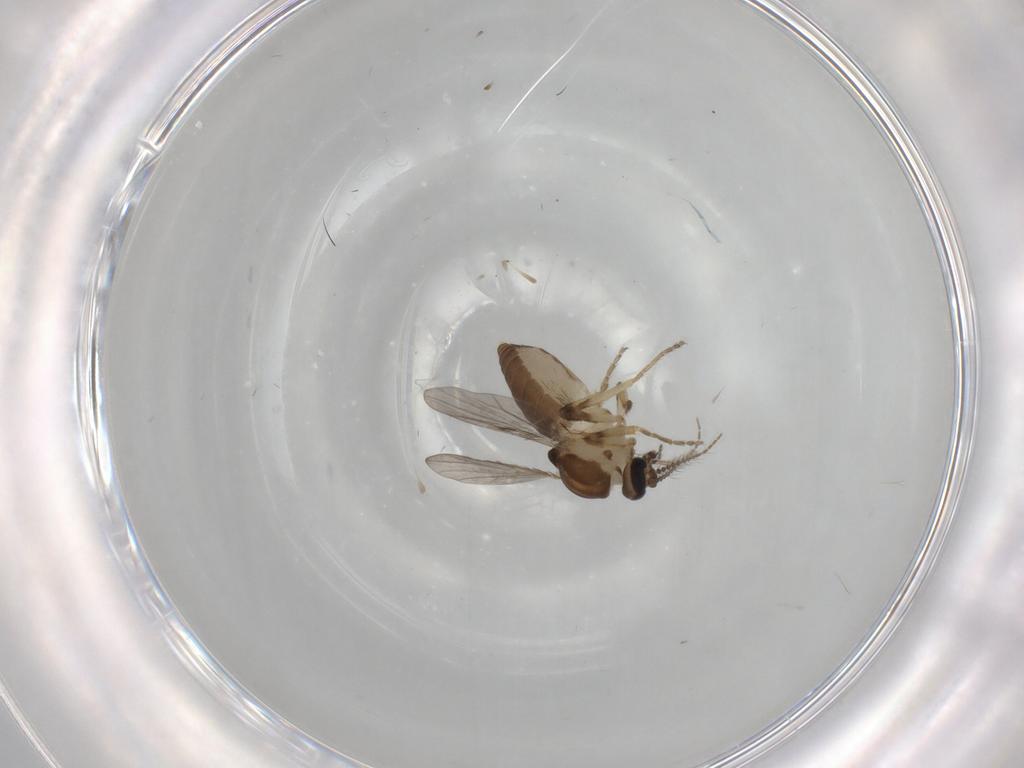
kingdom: Animalia
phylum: Arthropoda
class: Insecta
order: Diptera
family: Ceratopogonidae
